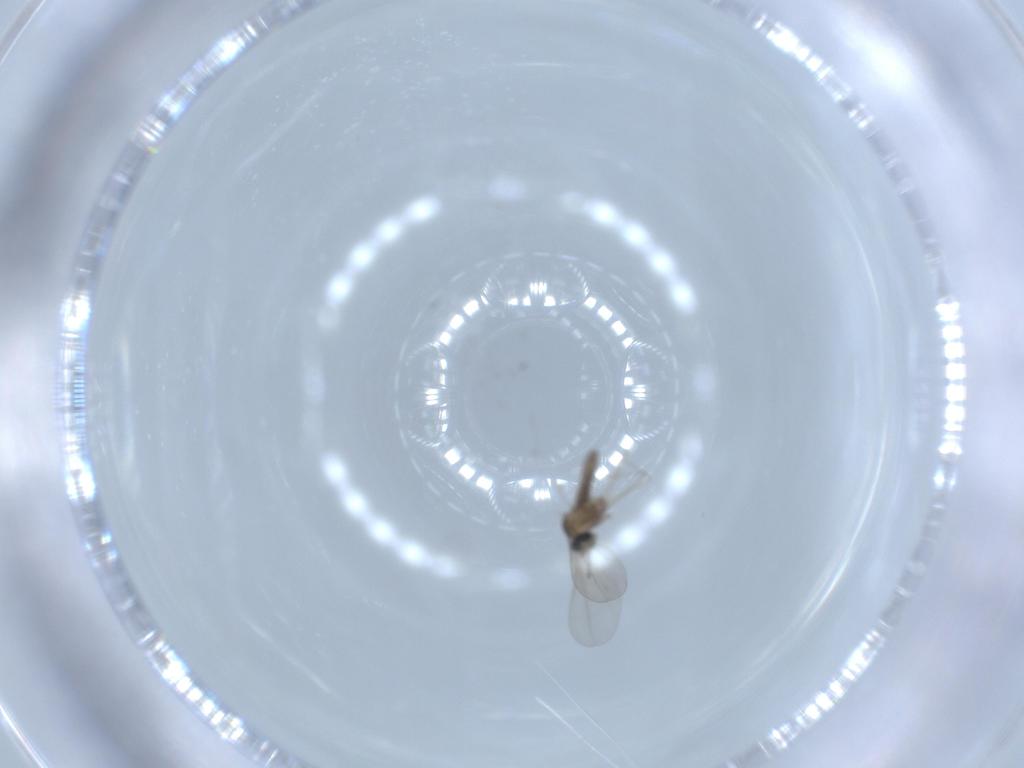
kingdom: Animalia
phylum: Arthropoda
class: Insecta
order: Diptera
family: Cecidomyiidae
